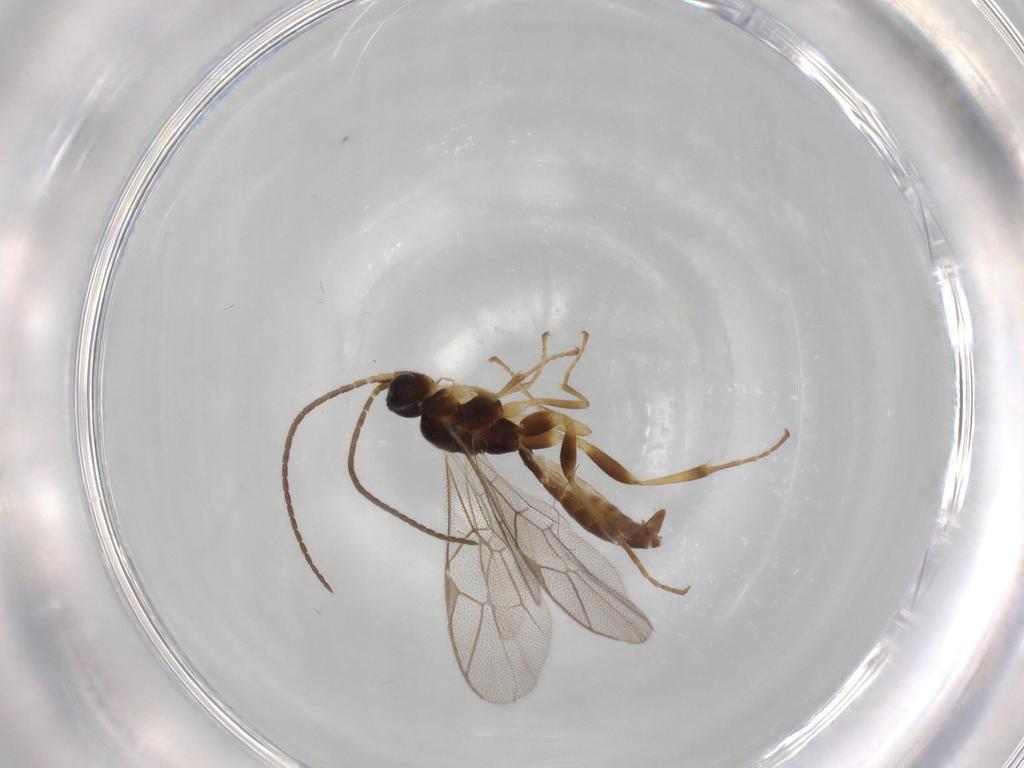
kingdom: Animalia
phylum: Arthropoda
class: Insecta
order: Hymenoptera
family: Ichneumonidae
